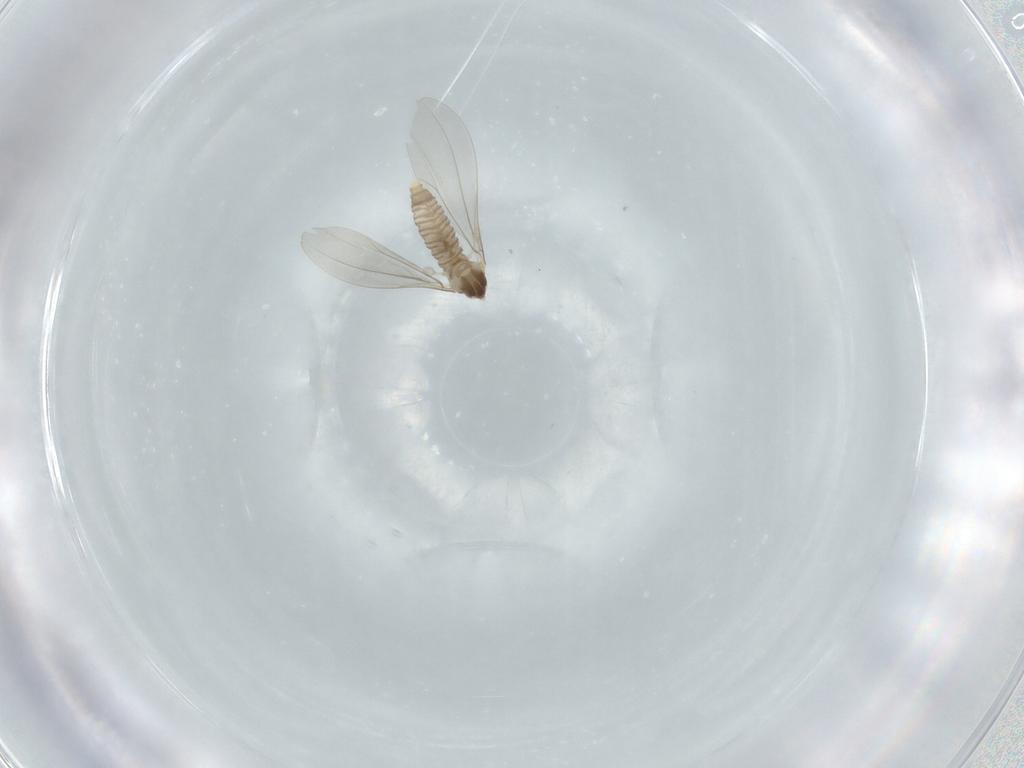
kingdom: Animalia
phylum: Arthropoda
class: Insecta
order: Diptera
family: Cecidomyiidae
